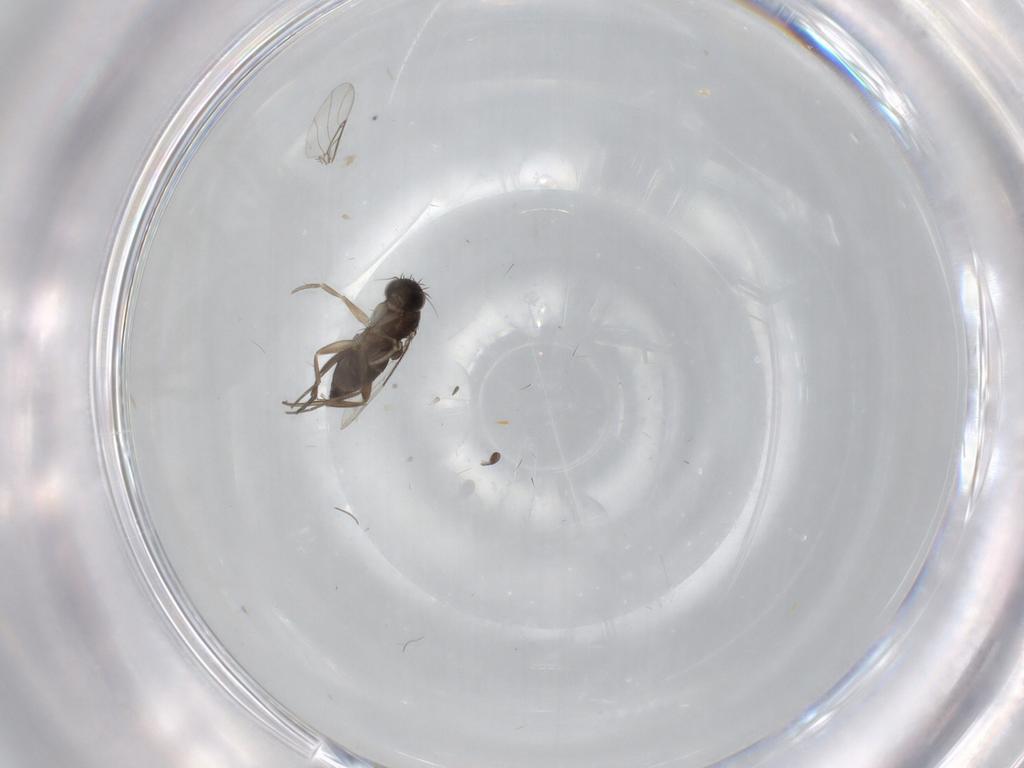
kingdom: Animalia
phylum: Arthropoda
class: Insecta
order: Diptera
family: Phoridae
